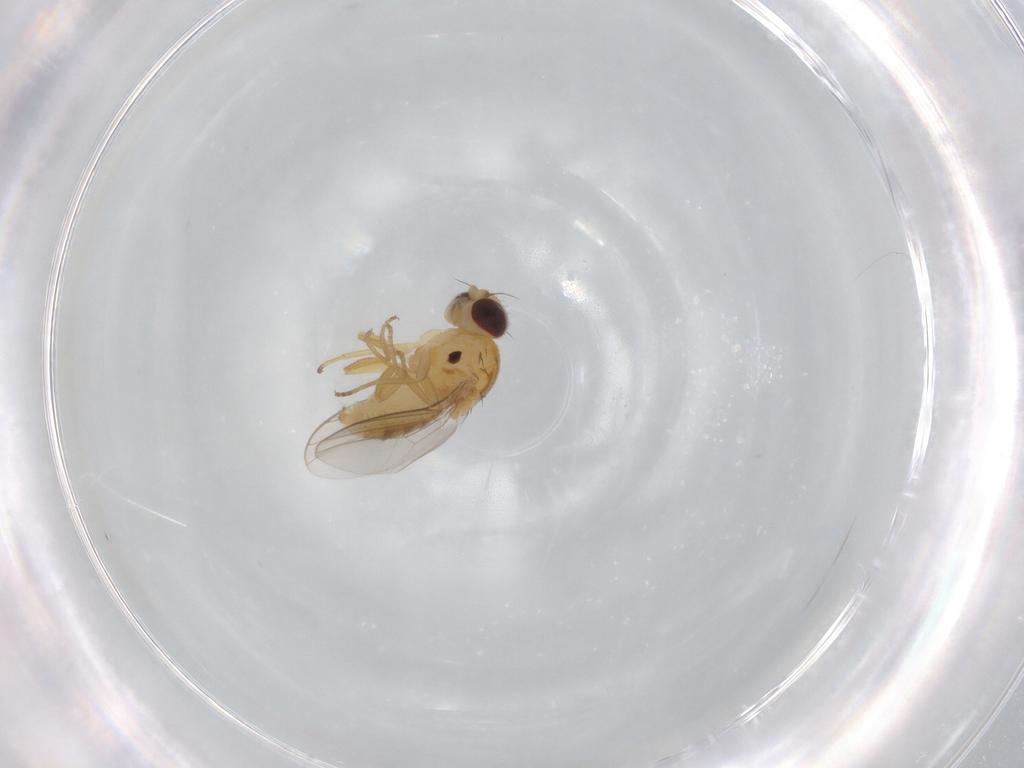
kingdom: Animalia
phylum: Arthropoda
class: Insecta
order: Diptera
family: Chloropidae
